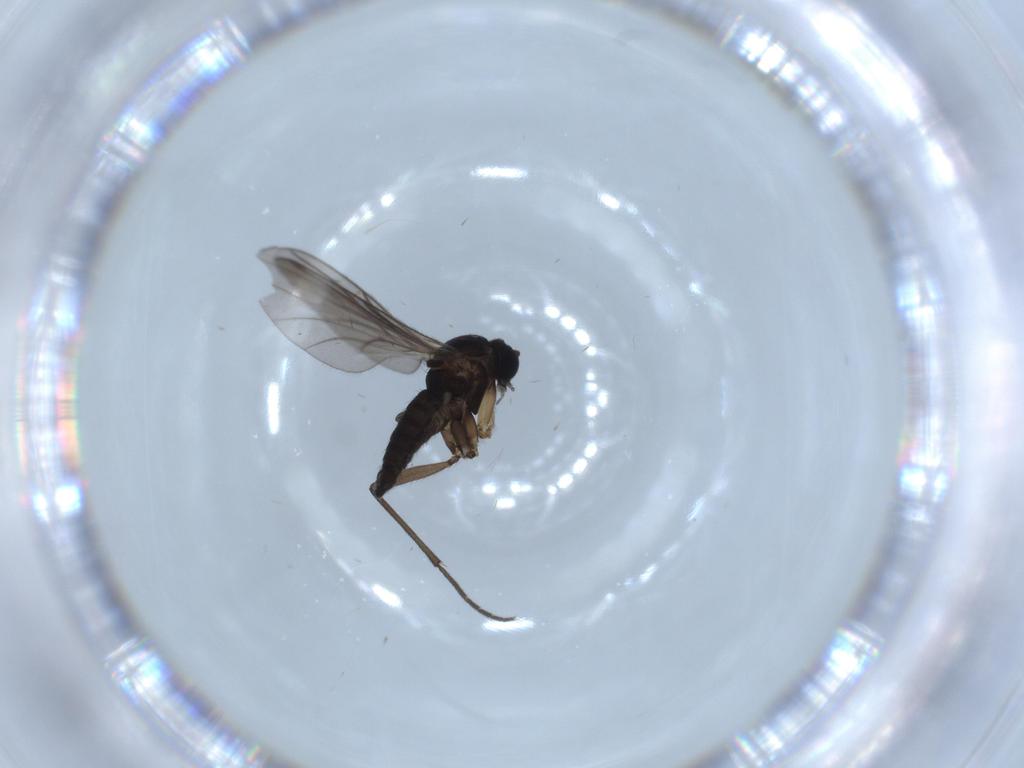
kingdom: Animalia
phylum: Arthropoda
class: Insecta
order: Diptera
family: Sciaridae
